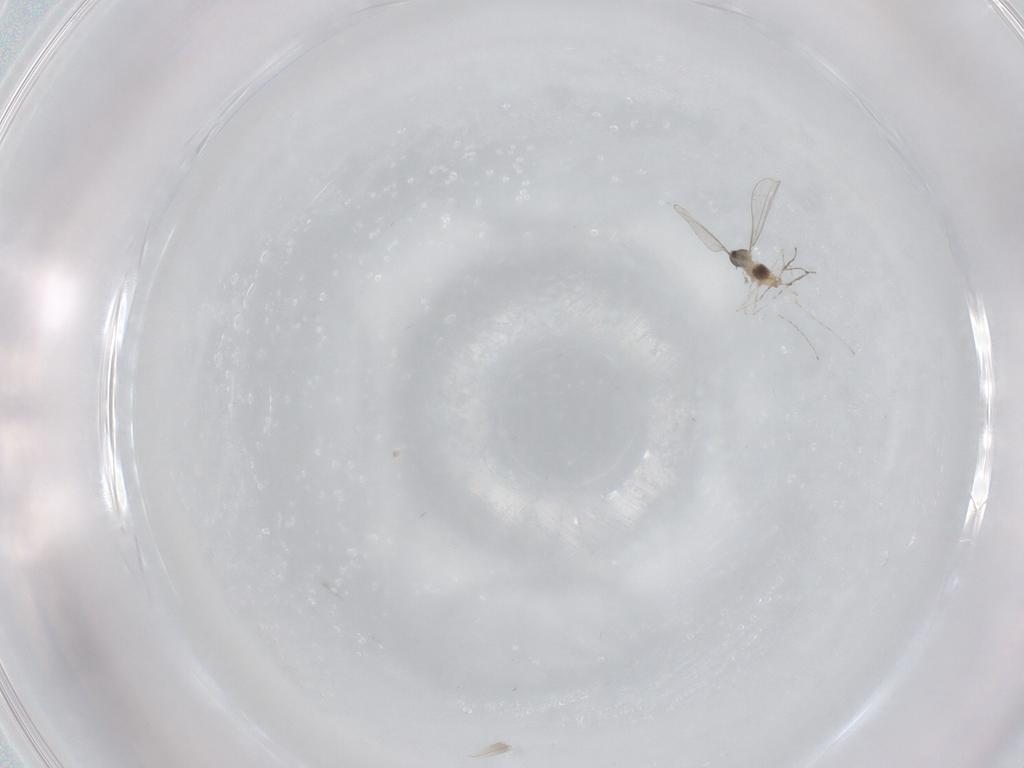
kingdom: Animalia
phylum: Arthropoda
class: Insecta
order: Diptera
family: Cecidomyiidae
